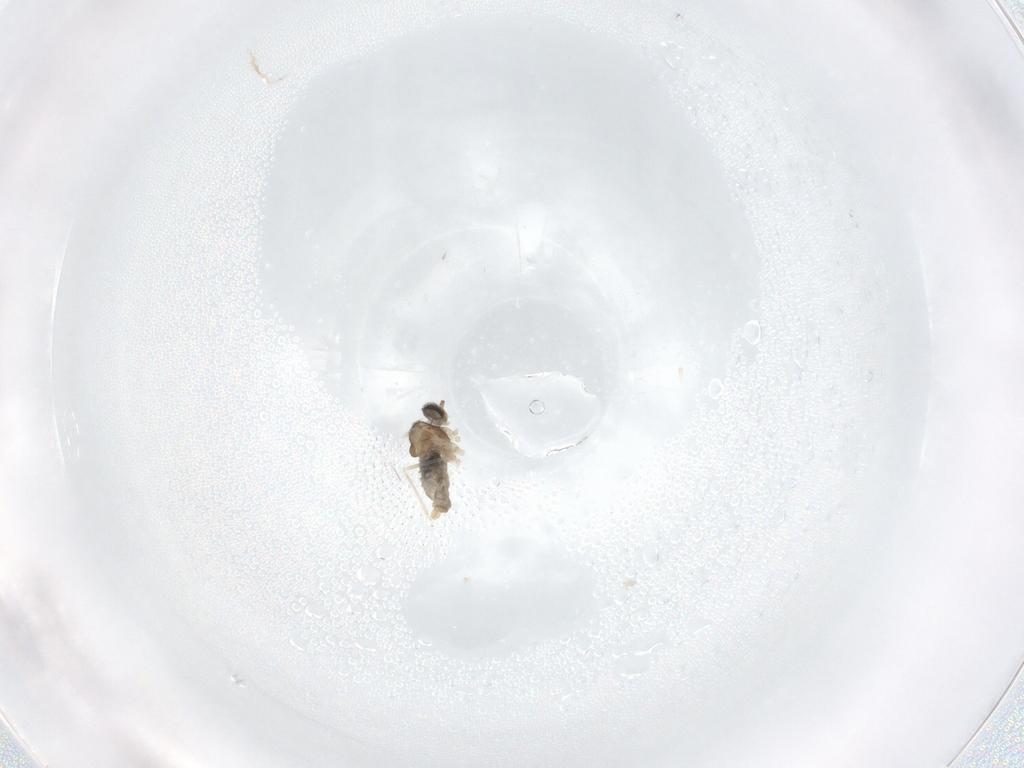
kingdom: Animalia
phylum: Arthropoda
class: Insecta
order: Diptera
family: Cecidomyiidae
